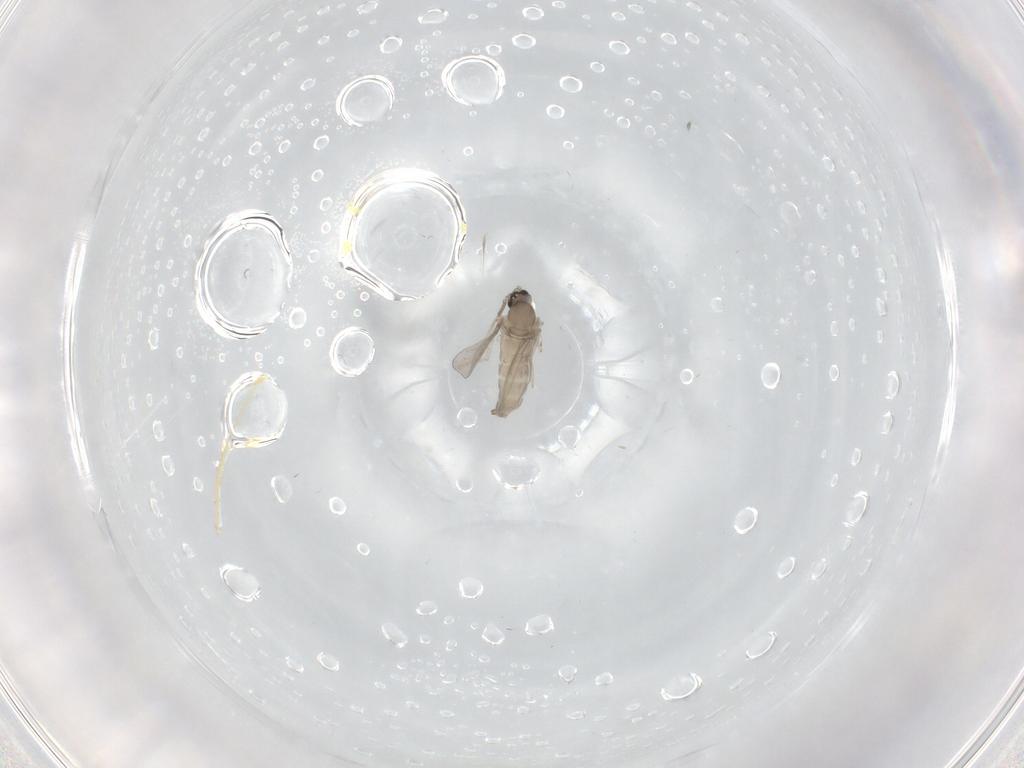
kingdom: Animalia
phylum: Arthropoda
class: Insecta
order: Diptera
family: Cecidomyiidae
